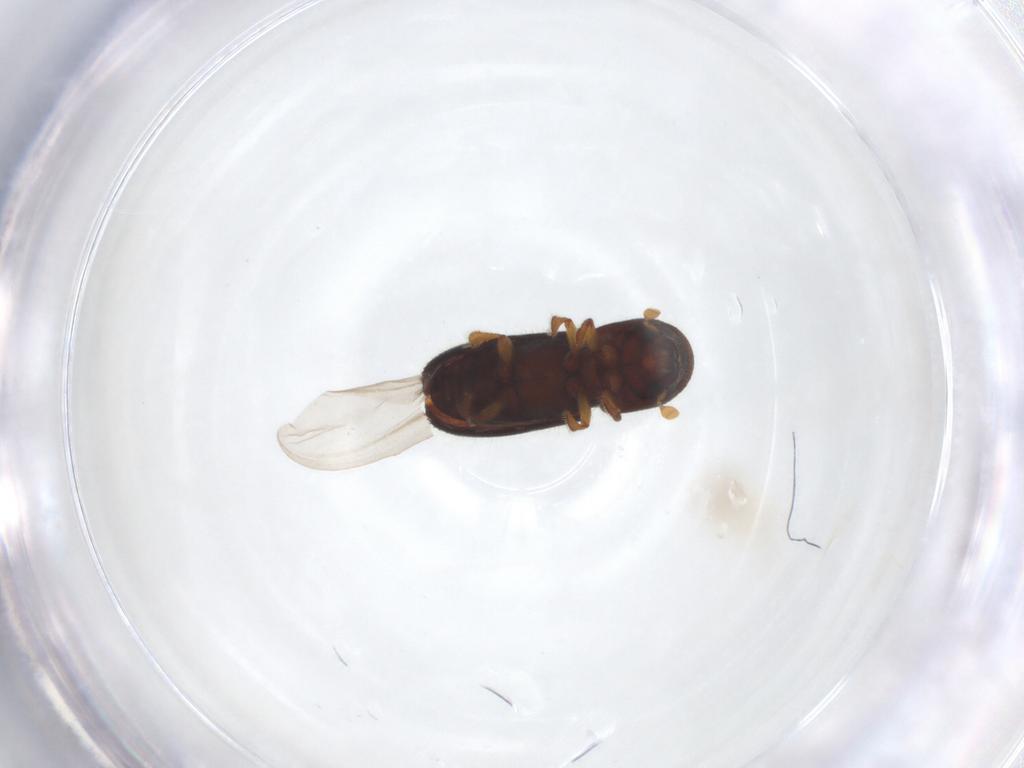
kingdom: Animalia
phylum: Arthropoda
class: Insecta
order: Coleoptera
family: Curculionidae
